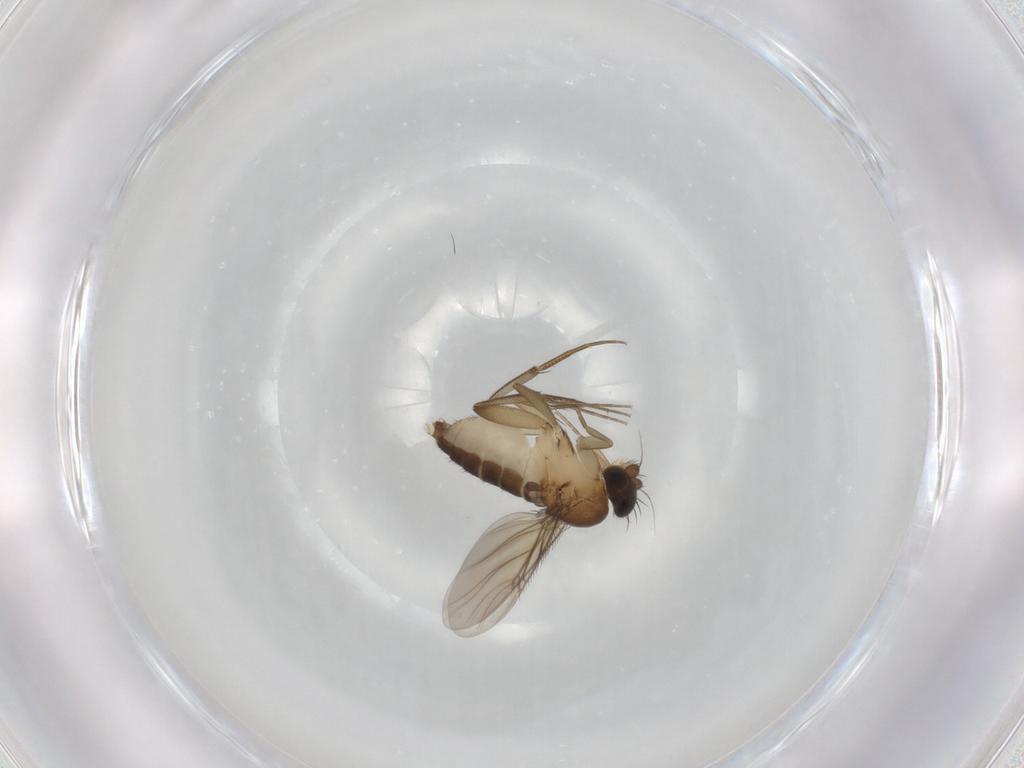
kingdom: Animalia
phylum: Arthropoda
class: Insecta
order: Diptera
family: Phoridae
